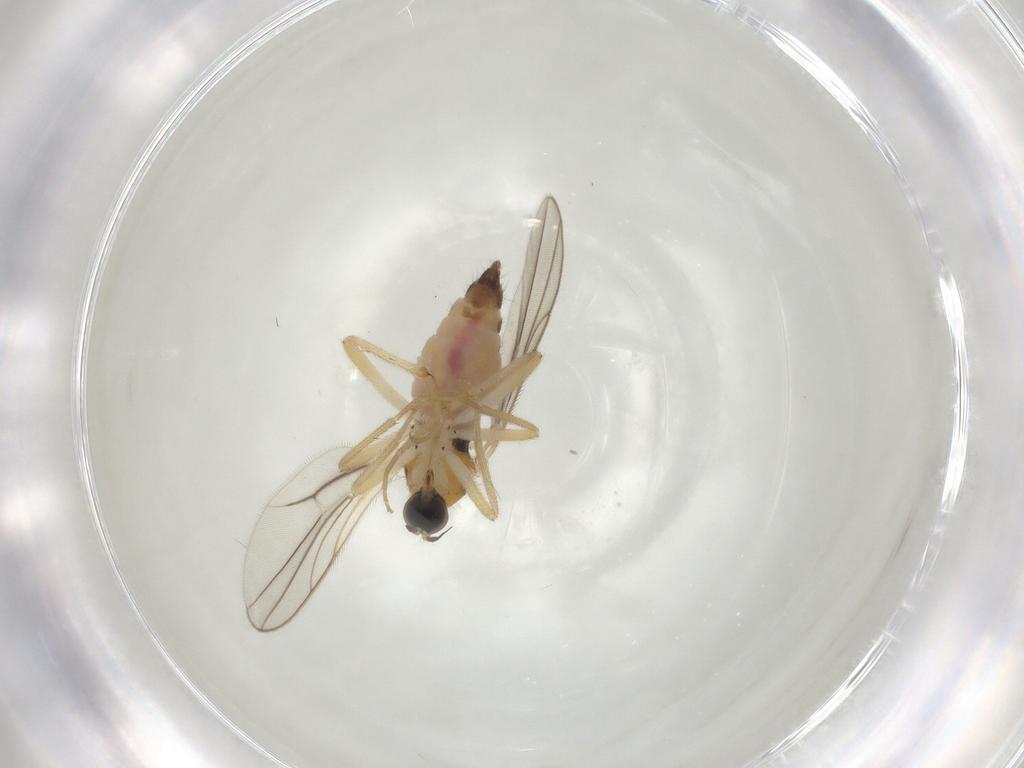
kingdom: Animalia
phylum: Arthropoda
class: Insecta
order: Diptera
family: Hybotidae
